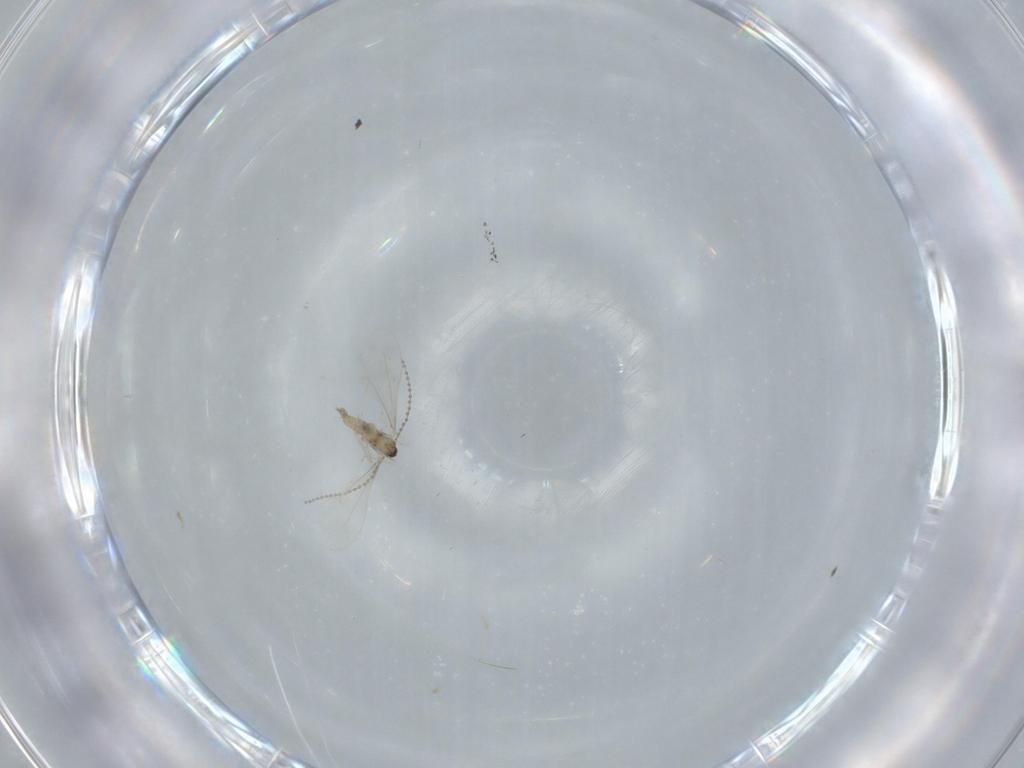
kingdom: Animalia
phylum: Arthropoda
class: Insecta
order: Diptera
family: Cecidomyiidae
